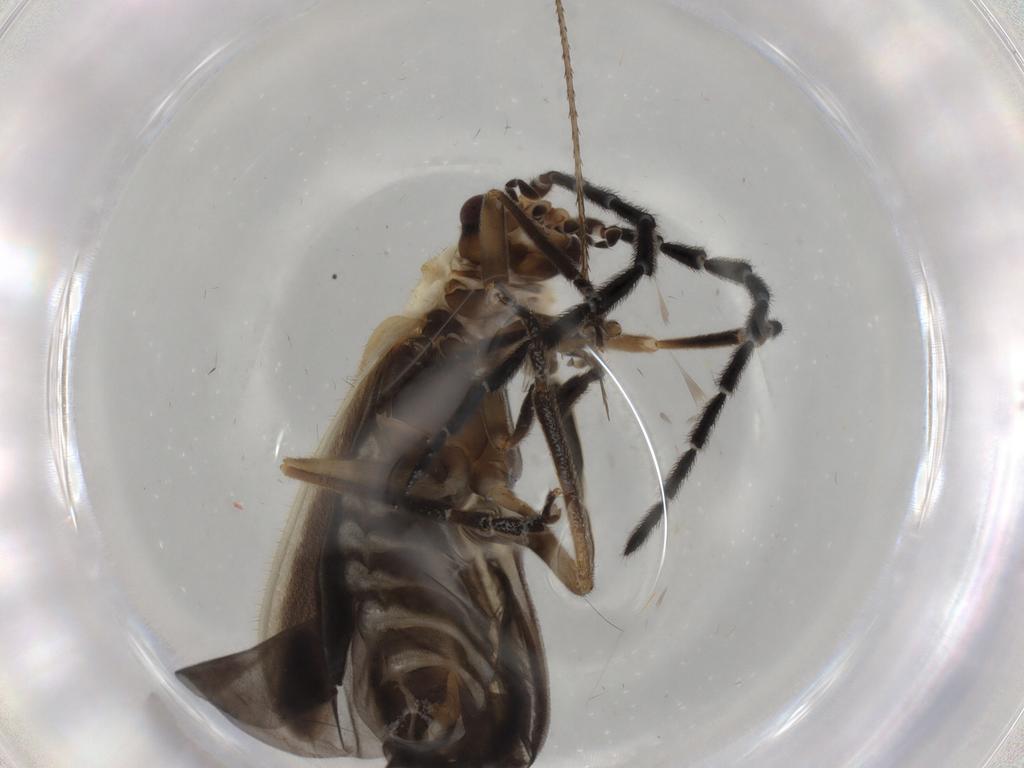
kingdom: Animalia
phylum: Arthropoda
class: Insecta
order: Coleoptera
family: Cantharidae
